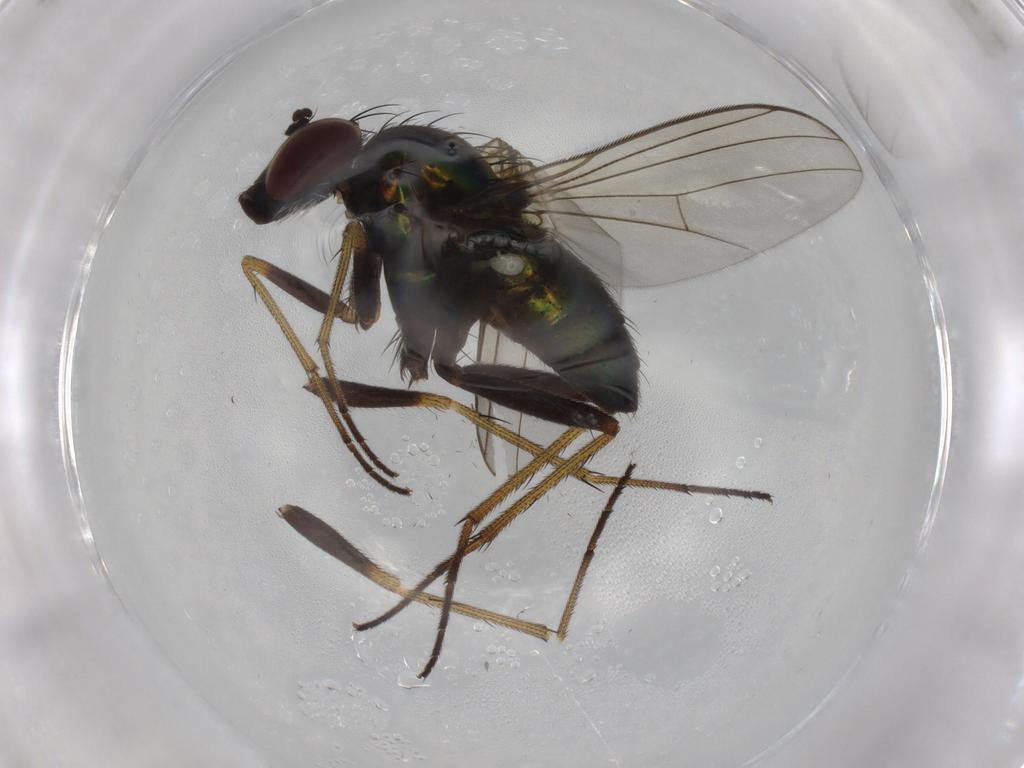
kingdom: Animalia
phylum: Arthropoda
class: Insecta
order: Diptera
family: Dolichopodidae
